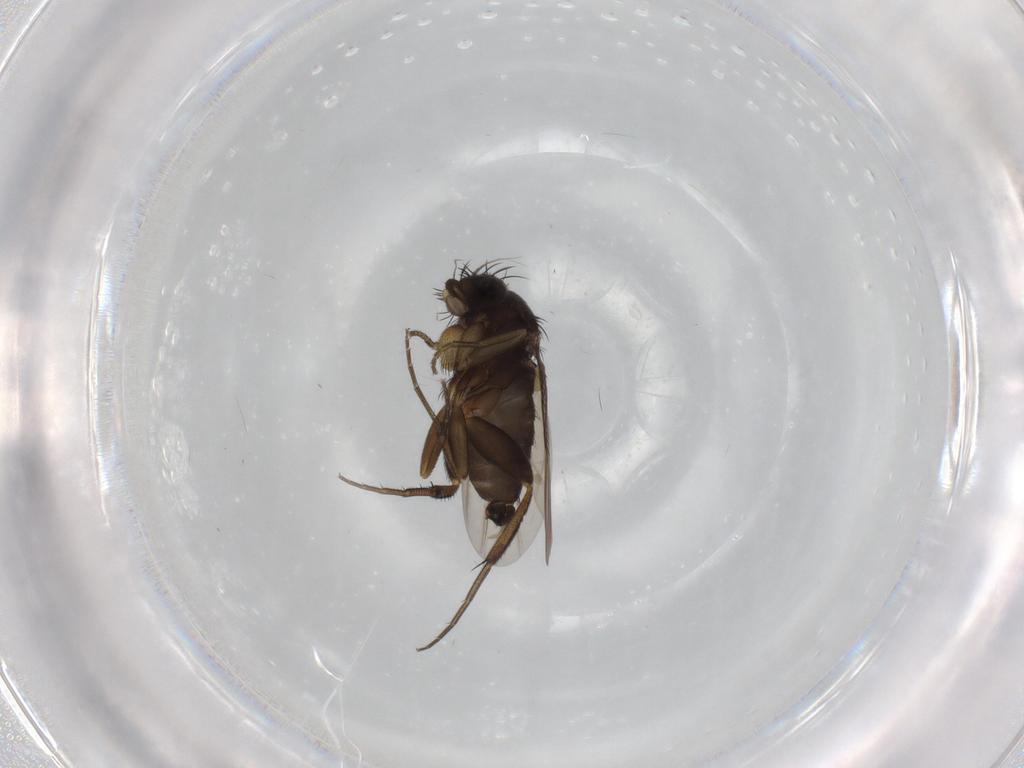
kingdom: Animalia
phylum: Arthropoda
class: Insecta
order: Diptera
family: Phoridae
